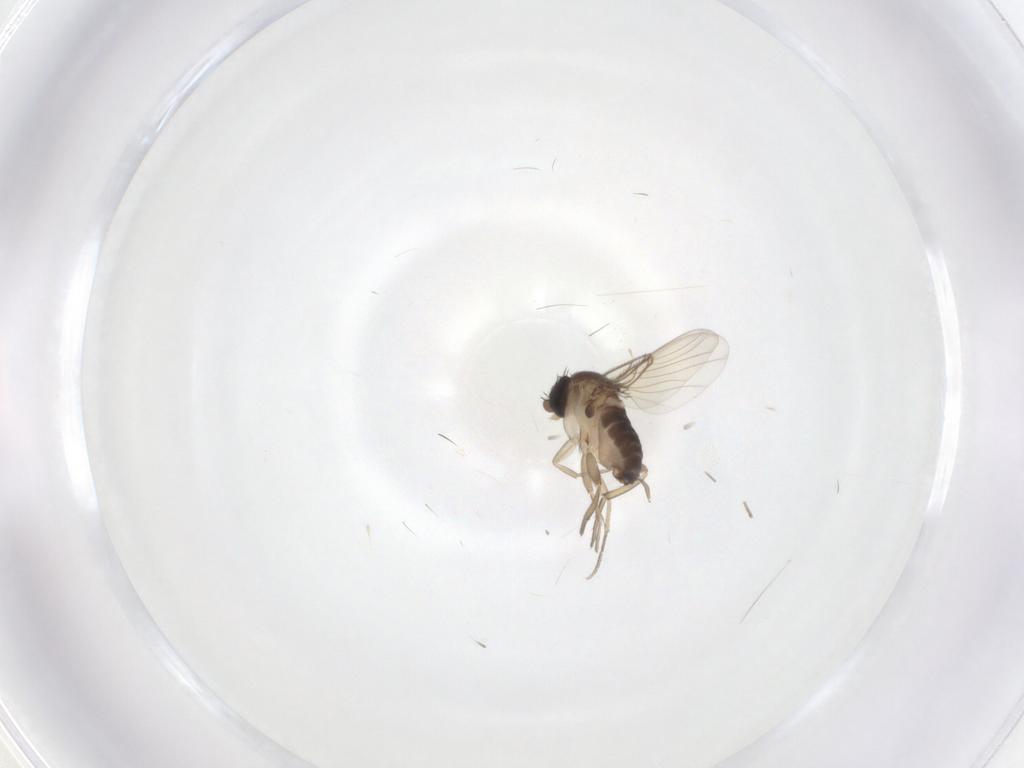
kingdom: Animalia
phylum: Arthropoda
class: Insecta
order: Diptera
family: Phoridae
